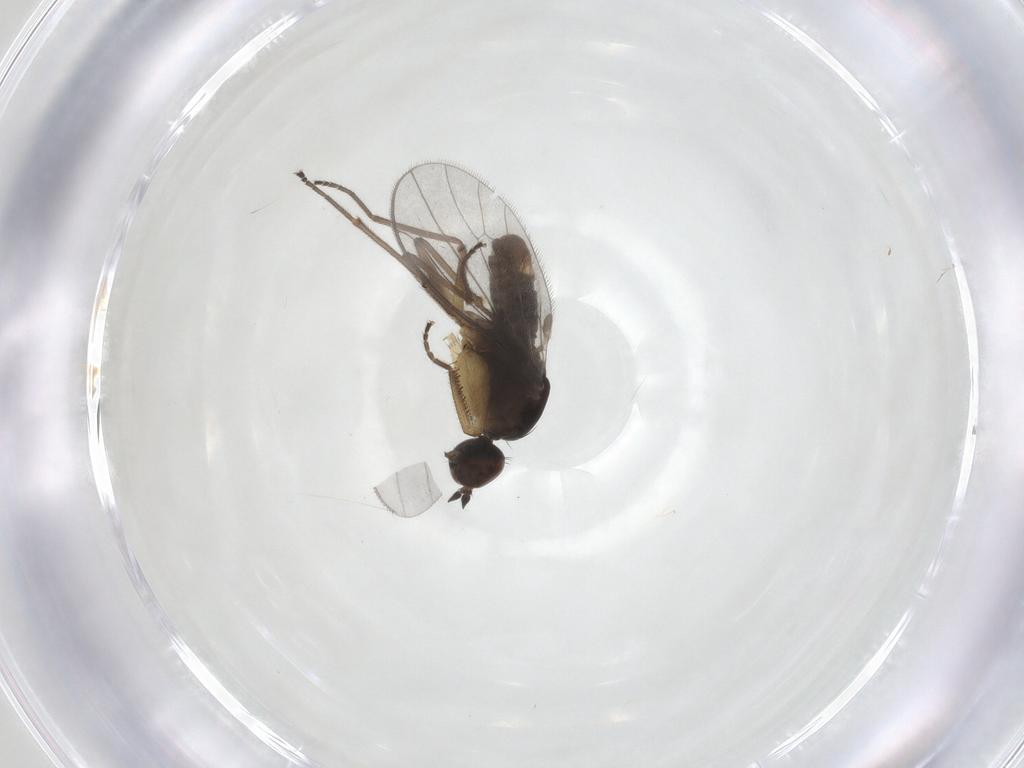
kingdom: Animalia
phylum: Arthropoda
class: Insecta
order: Diptera
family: Empididae
